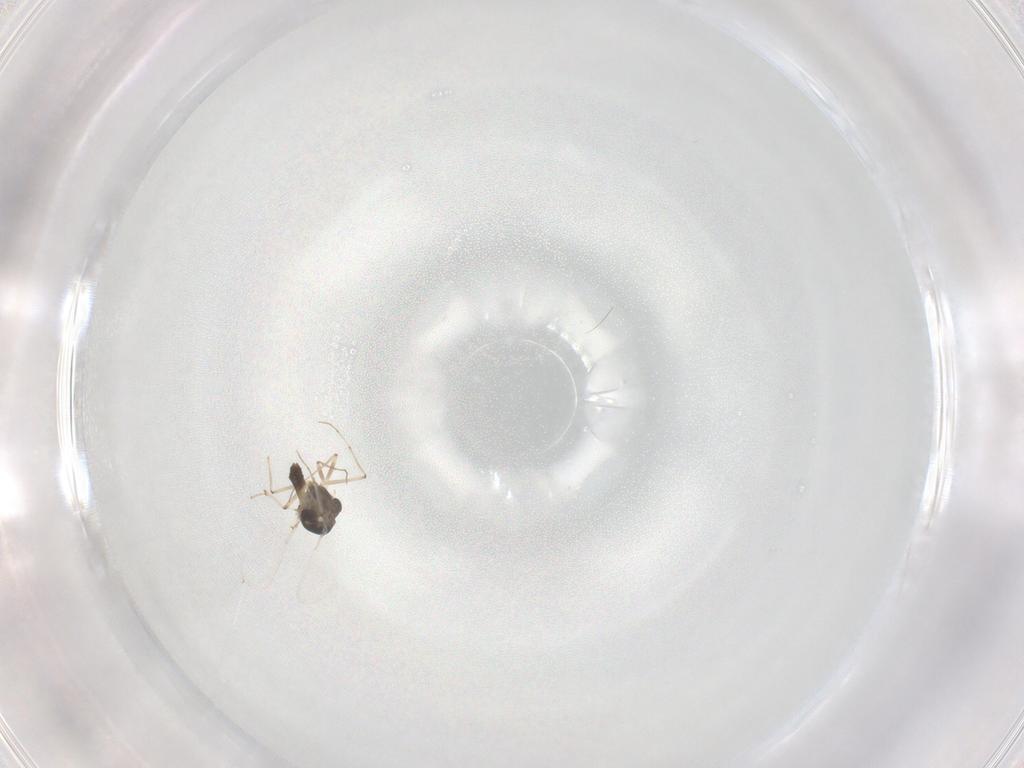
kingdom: Animalia
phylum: Arthropoda
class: Insecta
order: Diptera
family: Chironomidae
